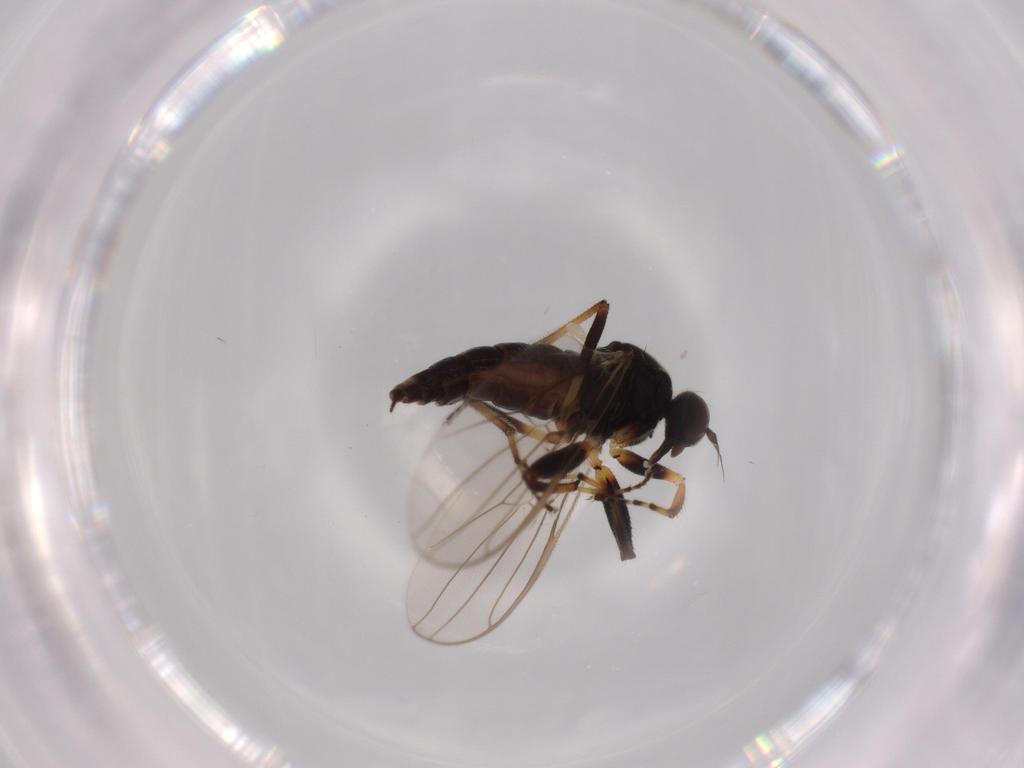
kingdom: Animalia
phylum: Arthropoda
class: Insecta
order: Diptera
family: Hybotidae
